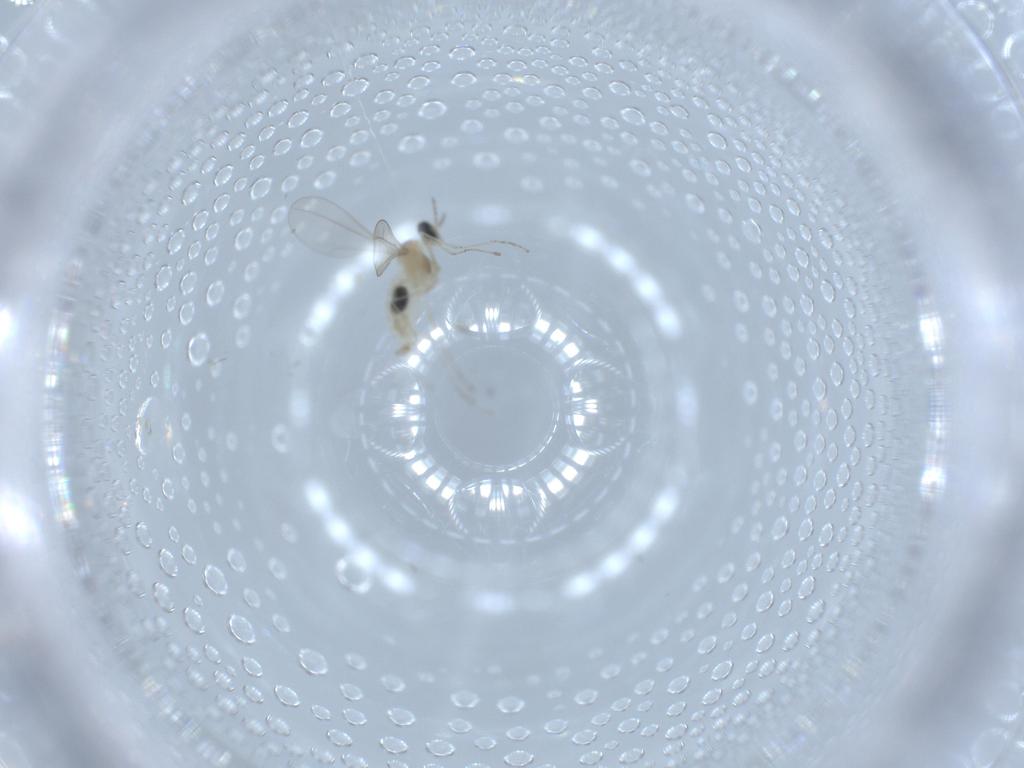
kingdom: Animalia
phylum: Arthropoda
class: Insecta
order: Diptera
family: Cecidomyiidae
